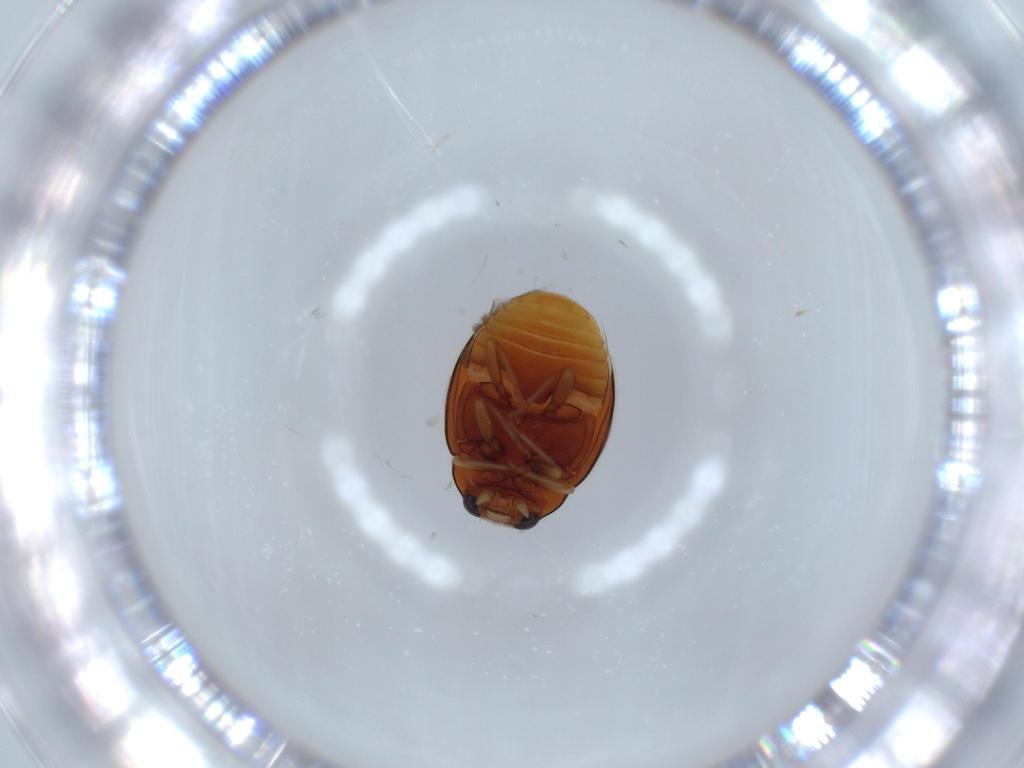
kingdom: Animalia
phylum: Arthropoda
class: Insecta
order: Coleoptera
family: Coccinellidae
